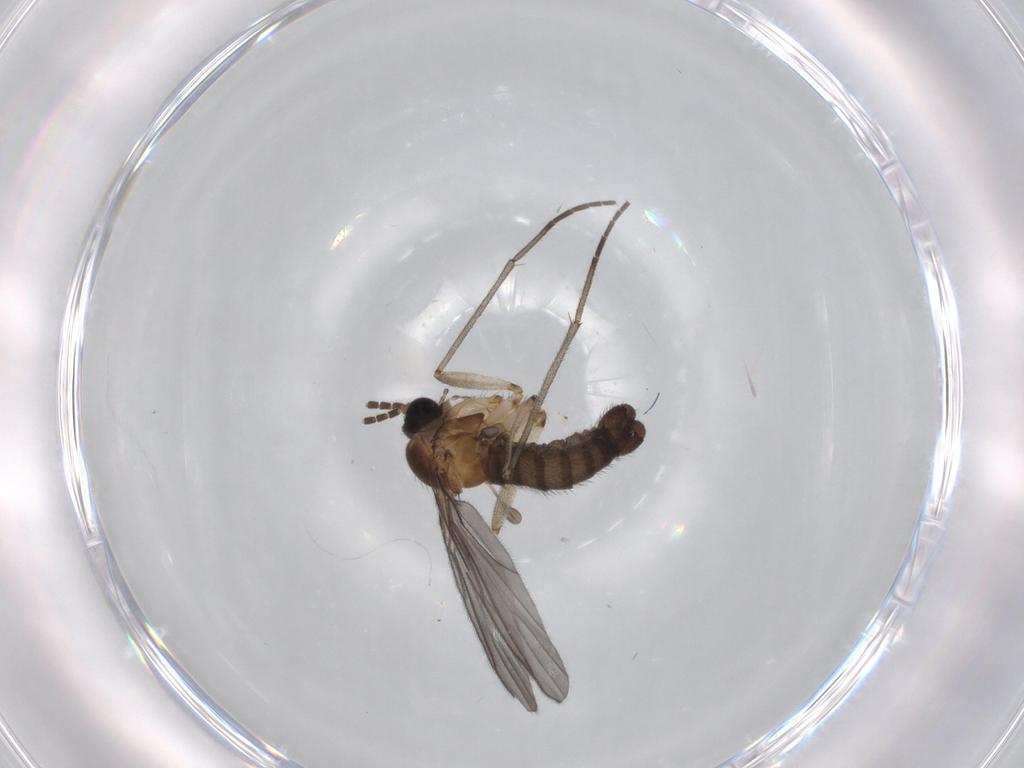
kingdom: Animalia
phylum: Arthropoda
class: Insecta
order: Diptera
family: Sciaridae
